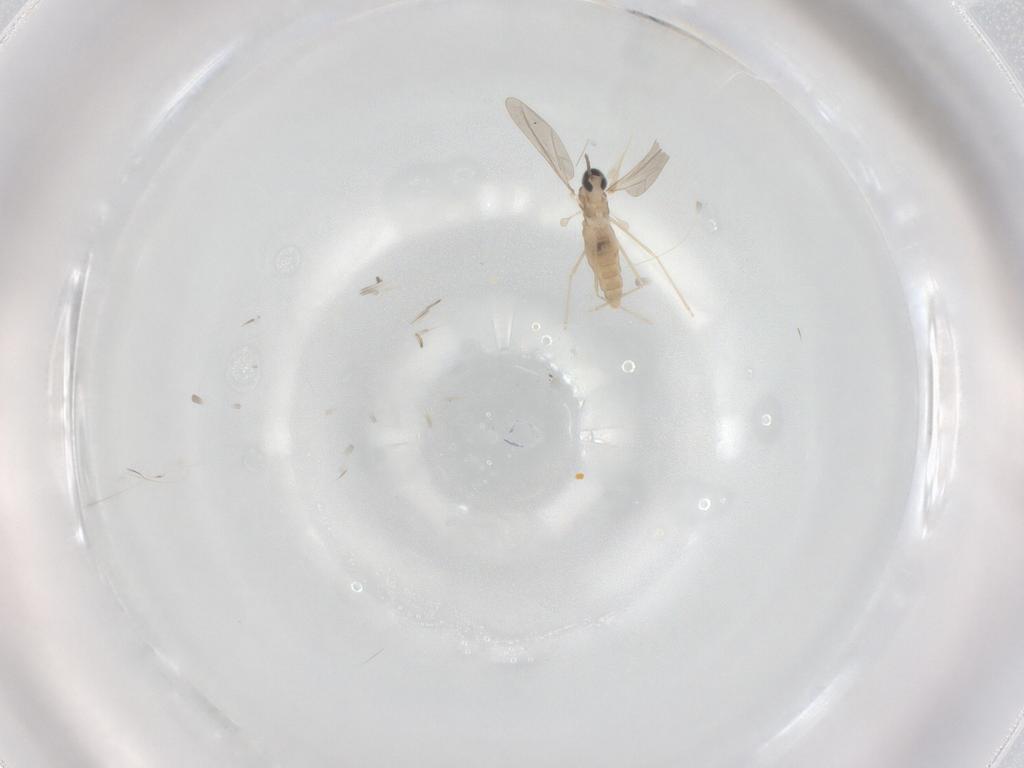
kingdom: Animalia
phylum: Arthropoda
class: Insecta
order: Diptera
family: Cecidomyiidae
